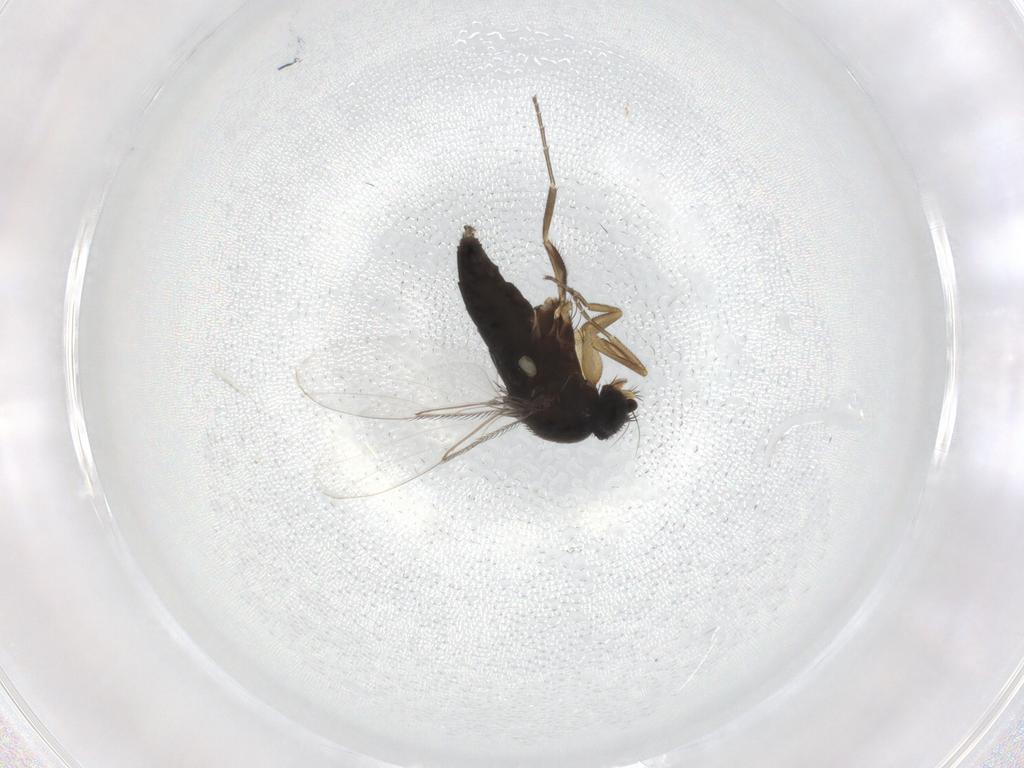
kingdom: Animalia
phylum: Arthropoda
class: Insecta
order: Diptera
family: Phoridae
